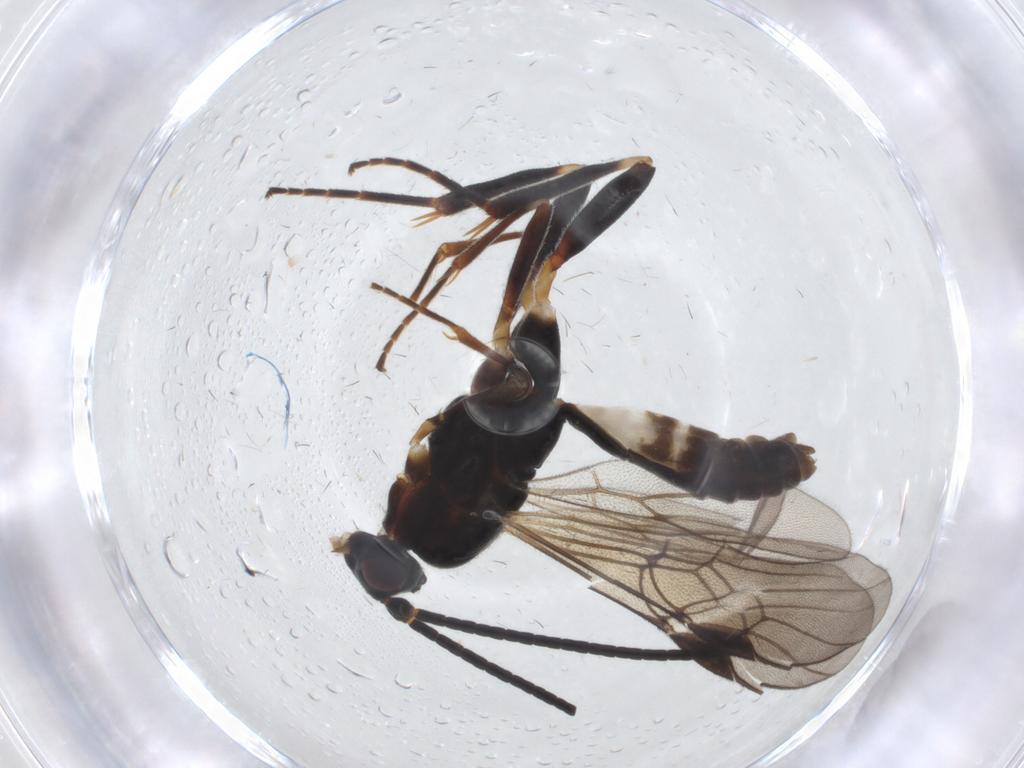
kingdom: Animalia
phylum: Arthropoda
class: Insecta
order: Hymenoptera
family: Braconidae
